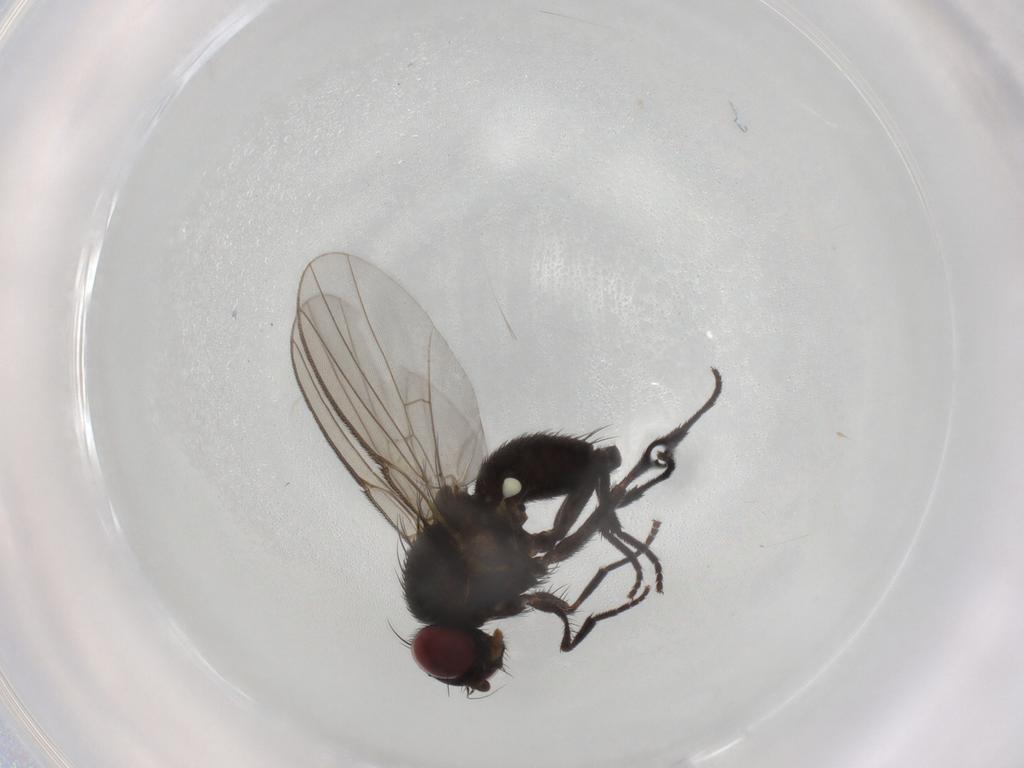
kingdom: Animalia
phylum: Arthropoda
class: Insecta
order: Diptera
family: Agromyzidae
